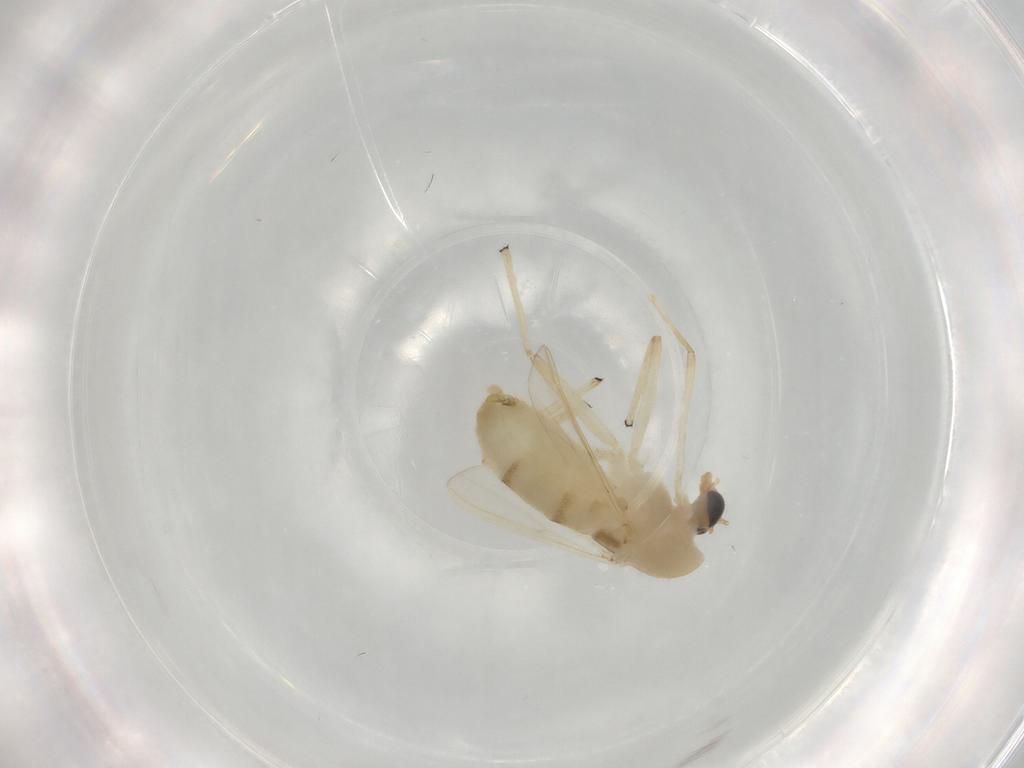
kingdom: Animalia
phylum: Arthropoda
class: Insecta
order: Diptera
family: Chironomidae
